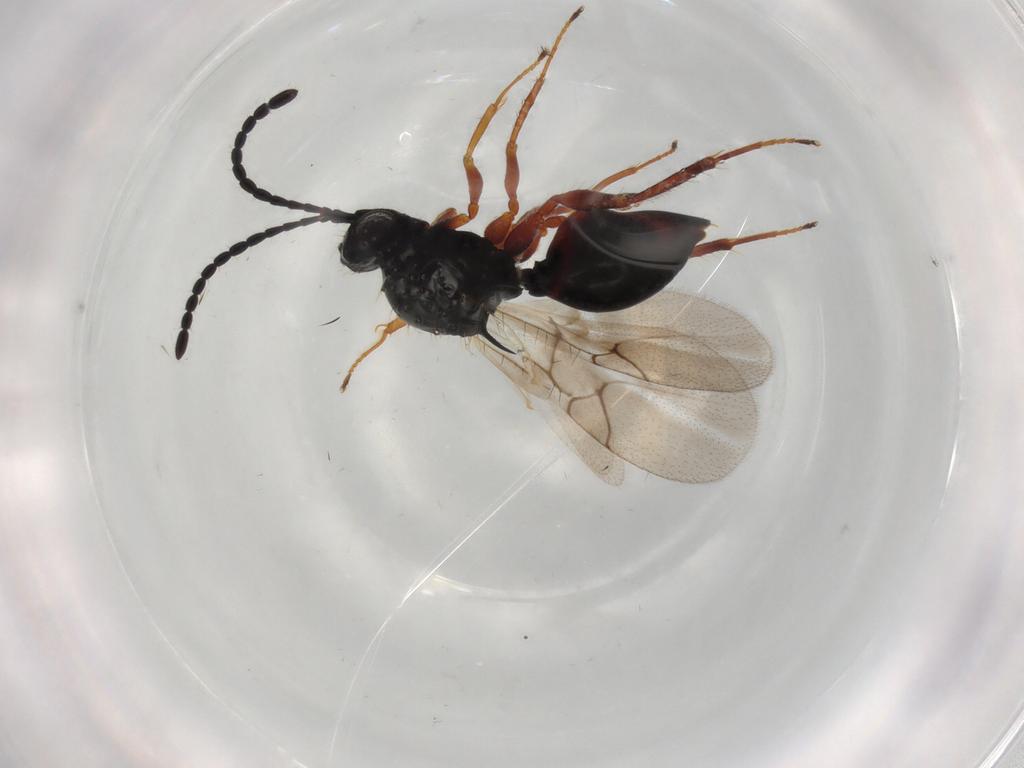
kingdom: Animalia
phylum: Arthropoda
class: Insecta
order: Hymenoptera
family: Figitidae
